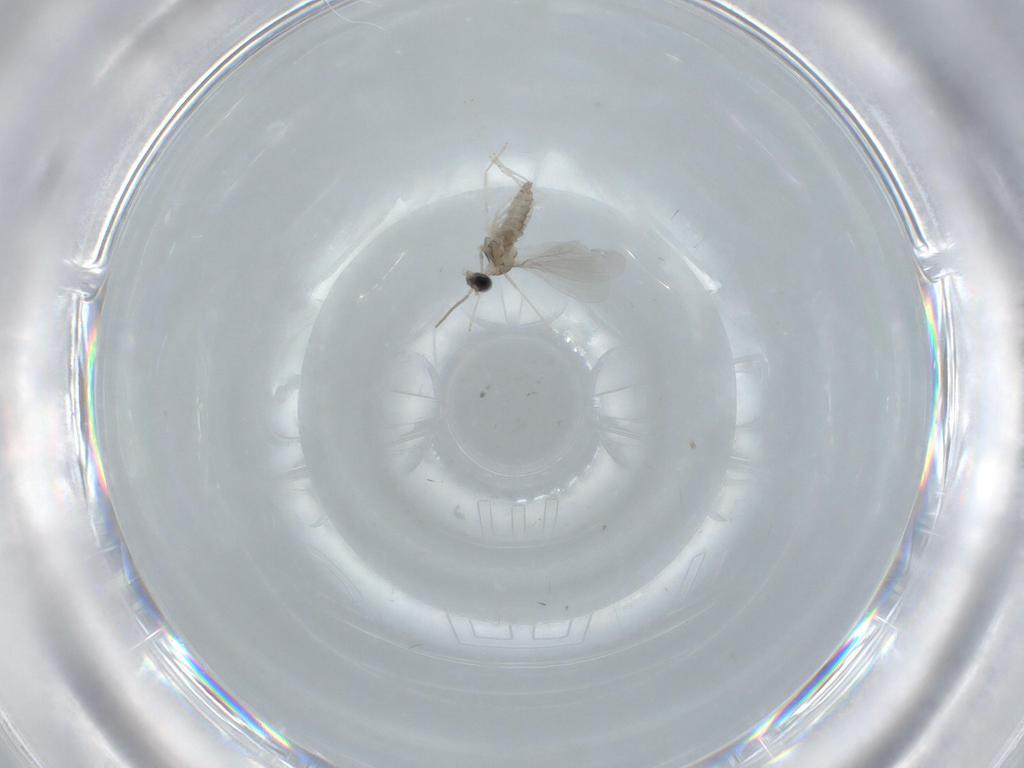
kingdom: Animalia
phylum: Arthropoda
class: Insecta
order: Diptera
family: Cecidomyiidae
